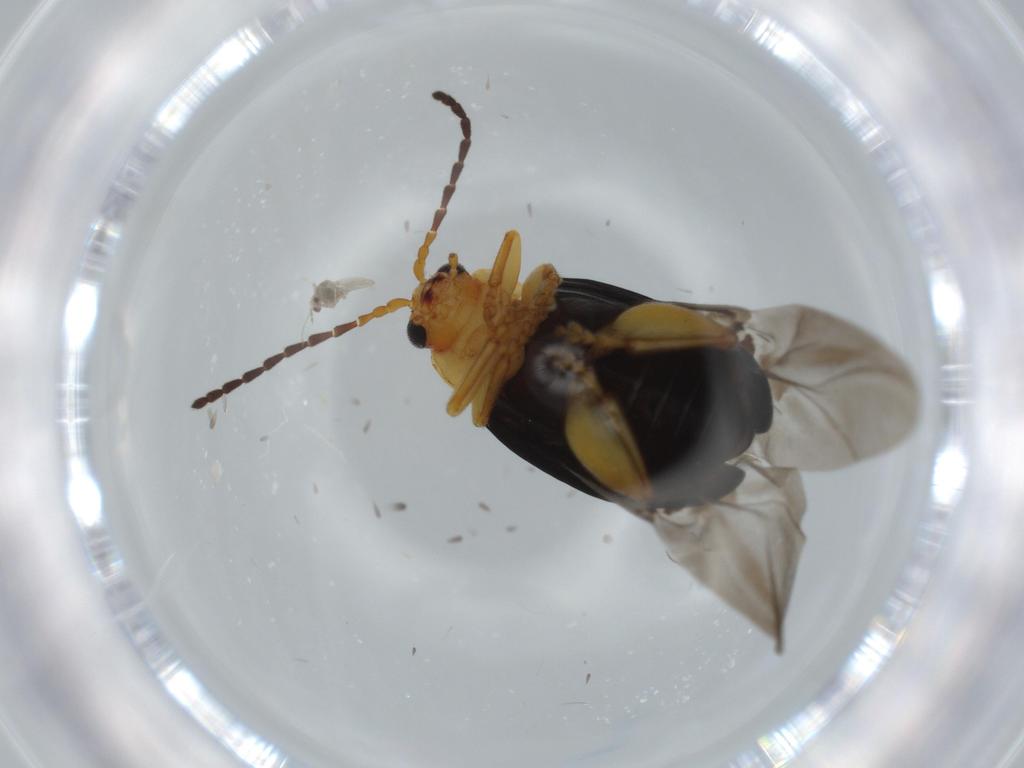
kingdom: Animalia
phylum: Arthropoda
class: Insecta
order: Coleoptera
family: Chrysomelidae
